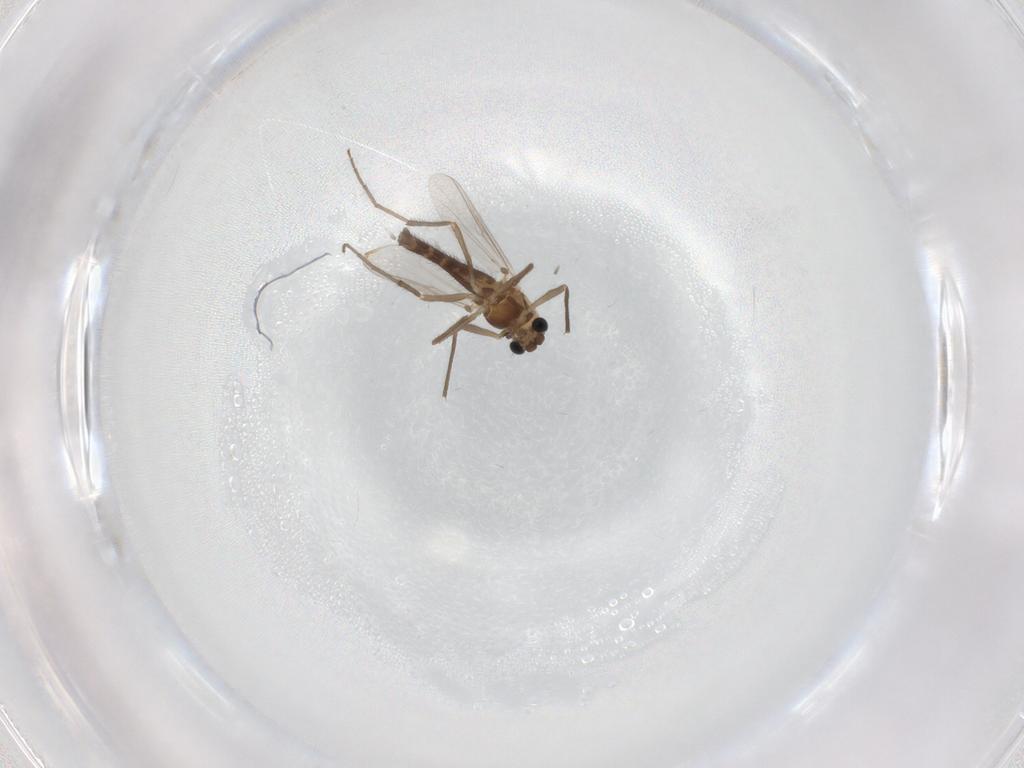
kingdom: Animalia
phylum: Arthropoda
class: Insecta
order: Diptera
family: Chironomidae
